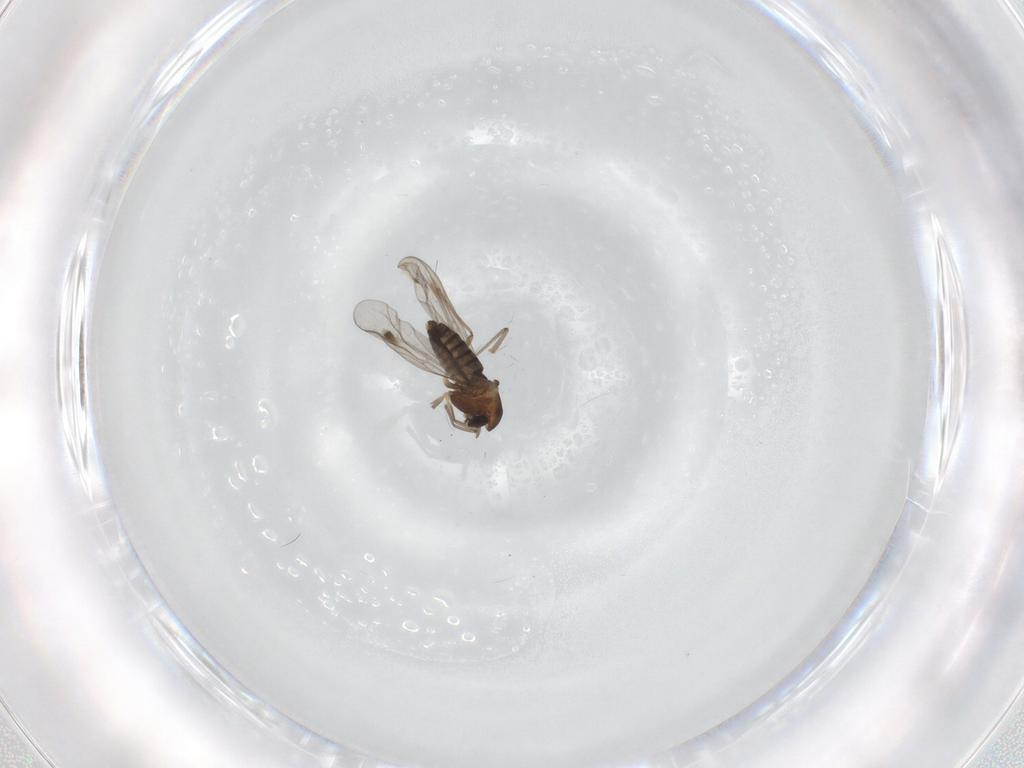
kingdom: Animalia
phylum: Arthropoda
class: Insecta
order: Diptera
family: Chironomidae
